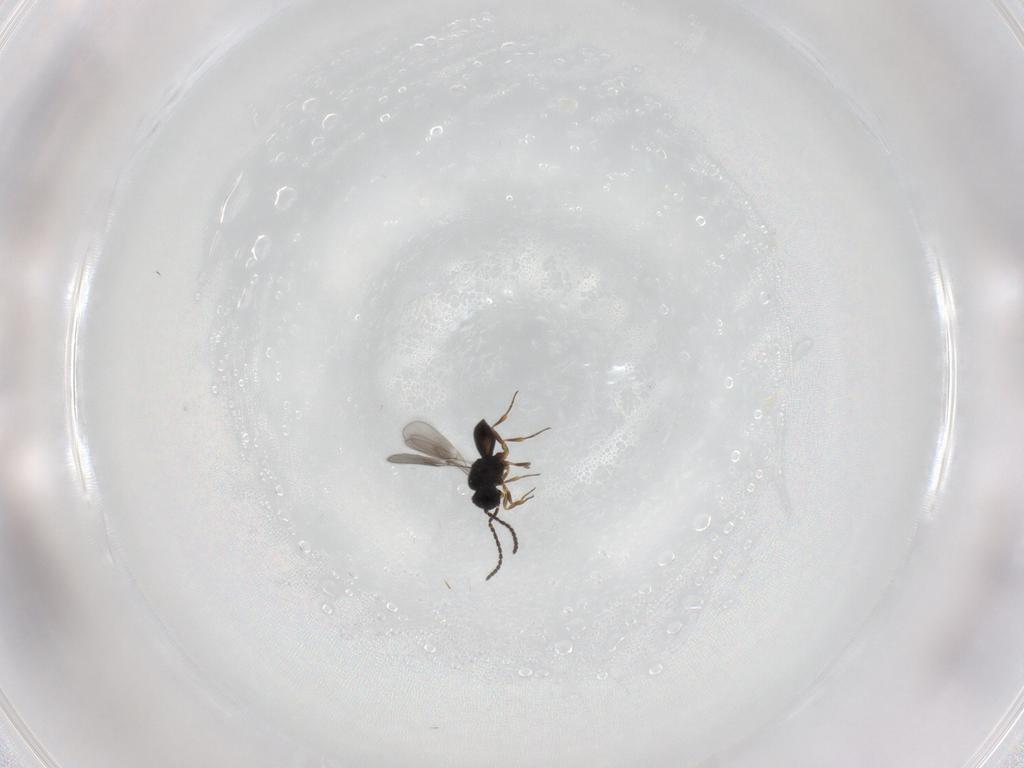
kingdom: Animalia
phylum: Arthropoda
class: Insecta
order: Hymenoptera
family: Scelionidae
